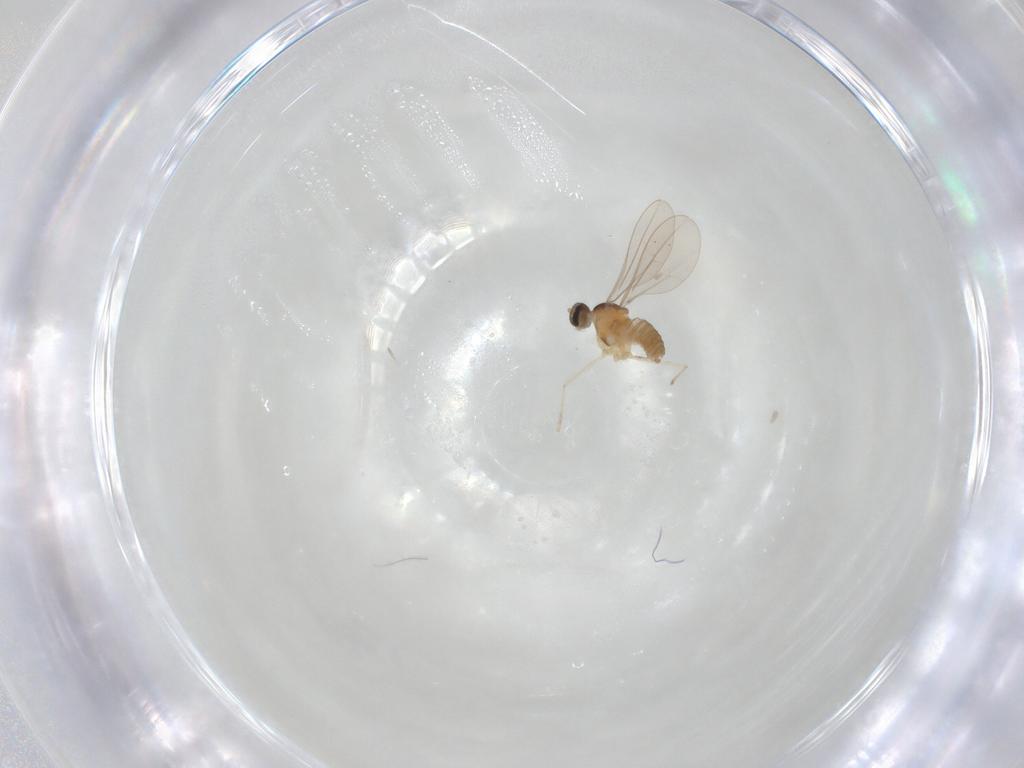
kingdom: Animalia
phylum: Arthropoda
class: Insecta
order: Diptera
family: Cecidomyiidae
